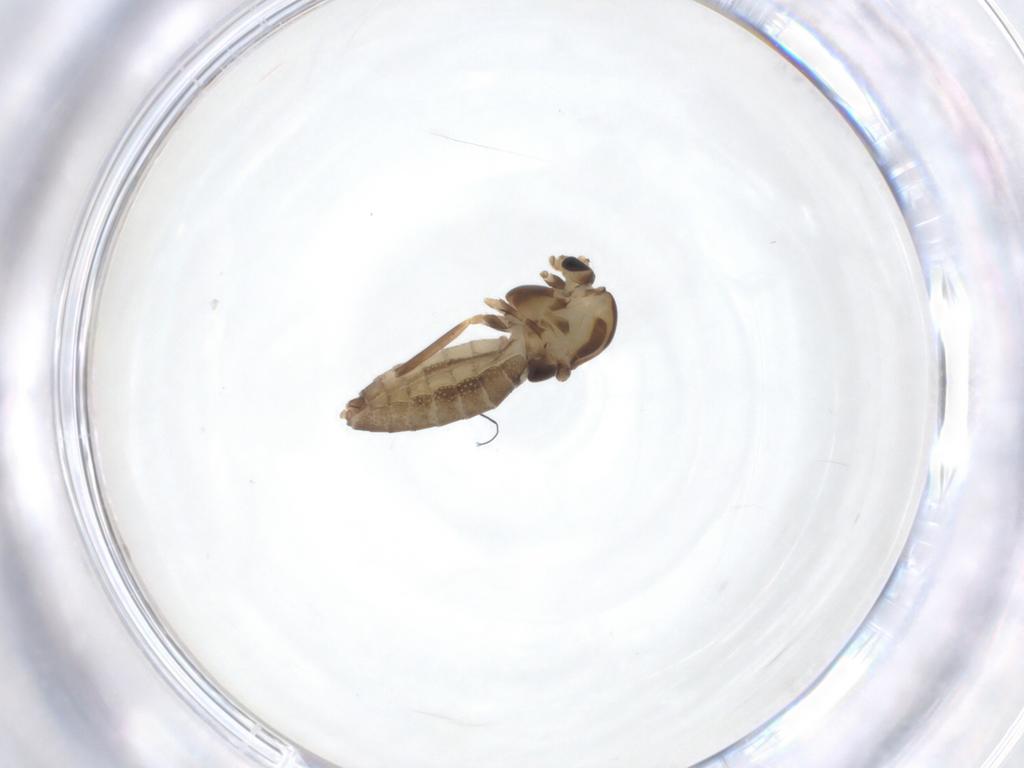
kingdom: Animalia
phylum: Arthropoda
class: Insecta
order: Diptera
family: Chironomidae
